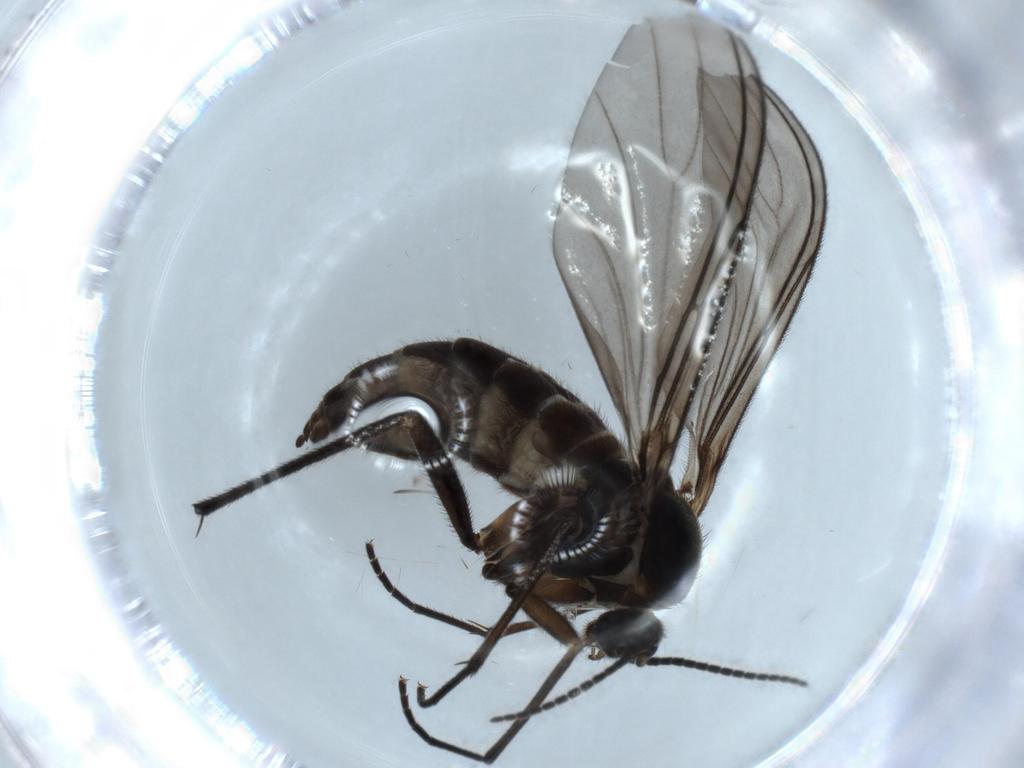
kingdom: Animalia
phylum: Arthropoda
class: Insecta
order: Diptera
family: Sciaridae
